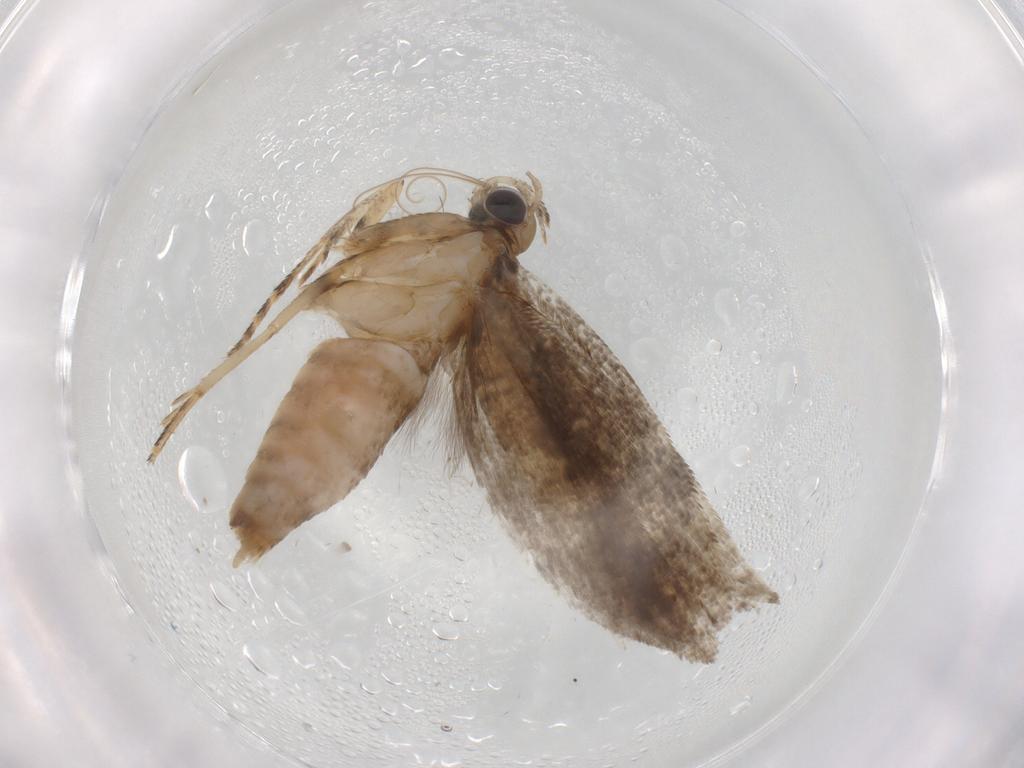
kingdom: Animalia
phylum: Arthropoda
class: Insecta
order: Lepidoptera
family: Glyphipterigidae
